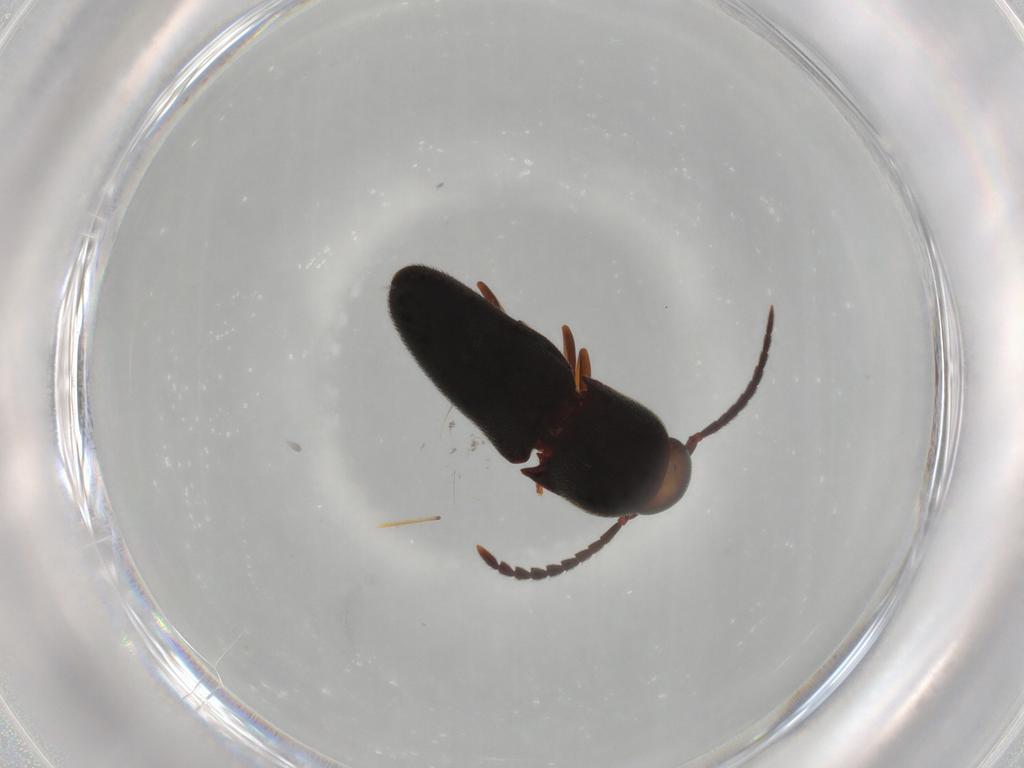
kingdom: Animalia
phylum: Arthropoda
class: Insecta
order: Coleoptera
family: Eucnemidae
